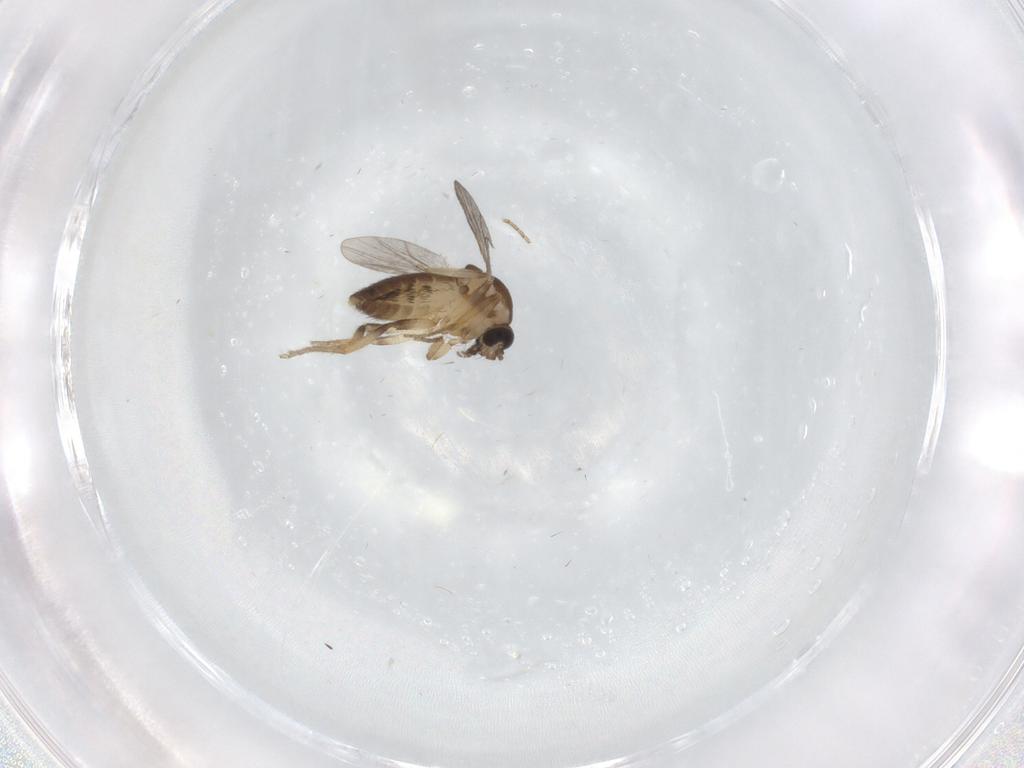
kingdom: Animalia
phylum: Arthropoda
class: Insecta
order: Diptera
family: Ceratopogonidae
